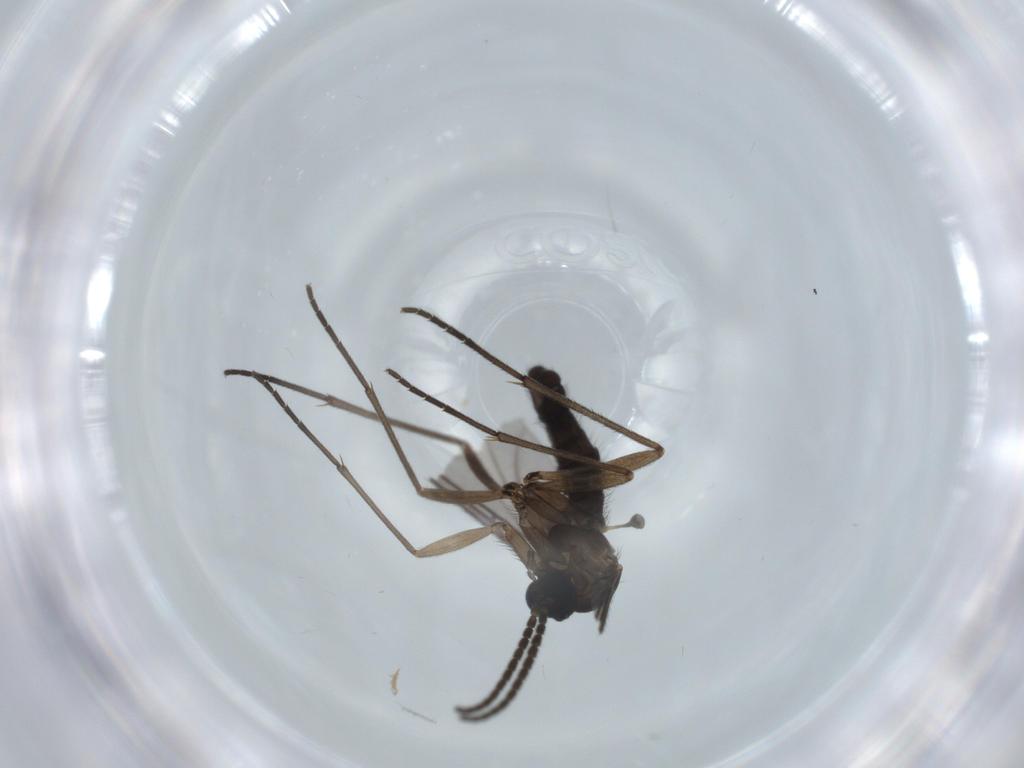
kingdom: Animalia
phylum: Arthropoda
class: Insecta
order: Diptera
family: Sciaridae
